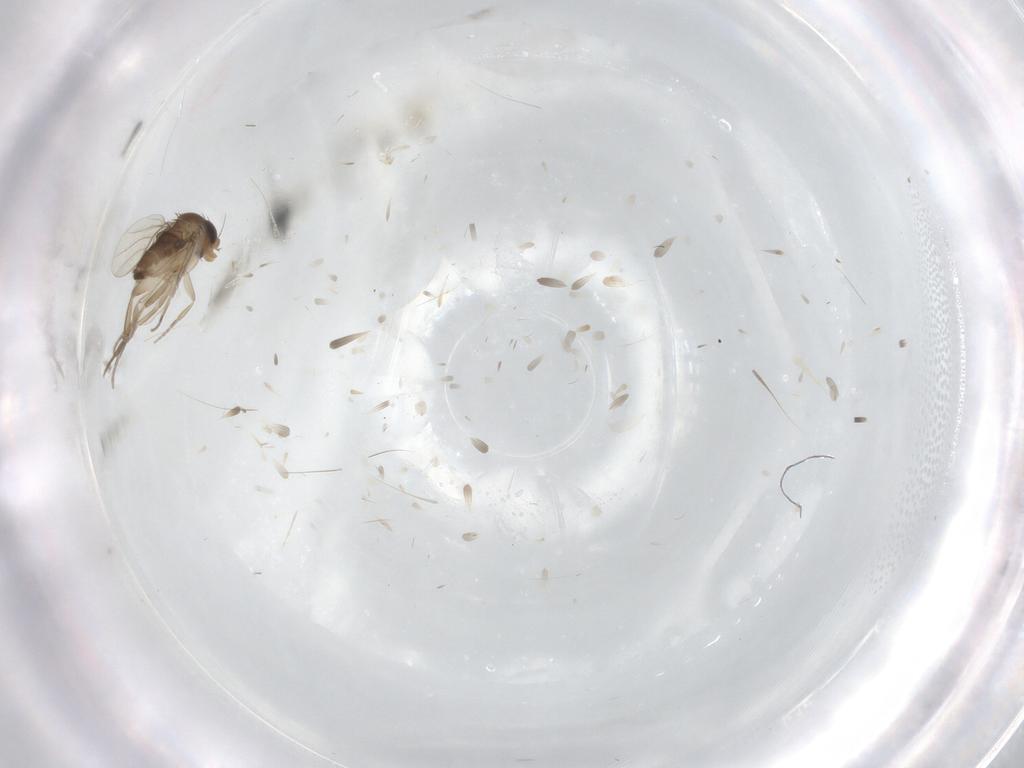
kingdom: Animalia
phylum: Arthropoda
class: Insecta
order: Diptera
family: Phoridae
